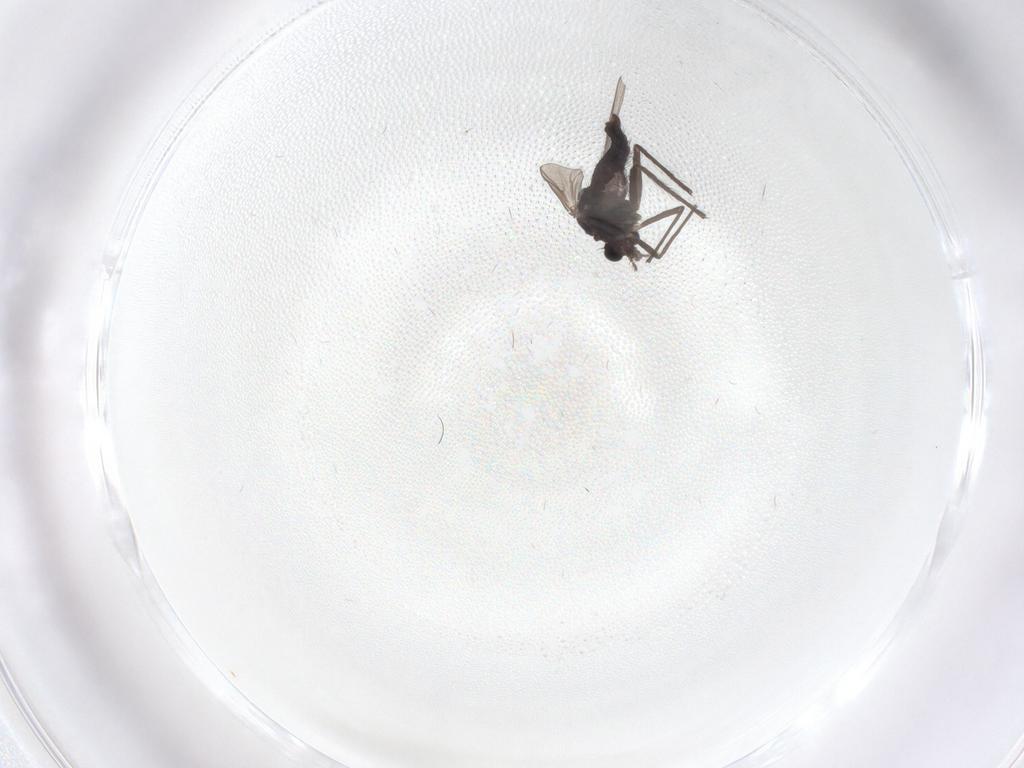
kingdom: Animalia
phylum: Arthropoda
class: Insecta
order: Diptera
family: Chironomidae
